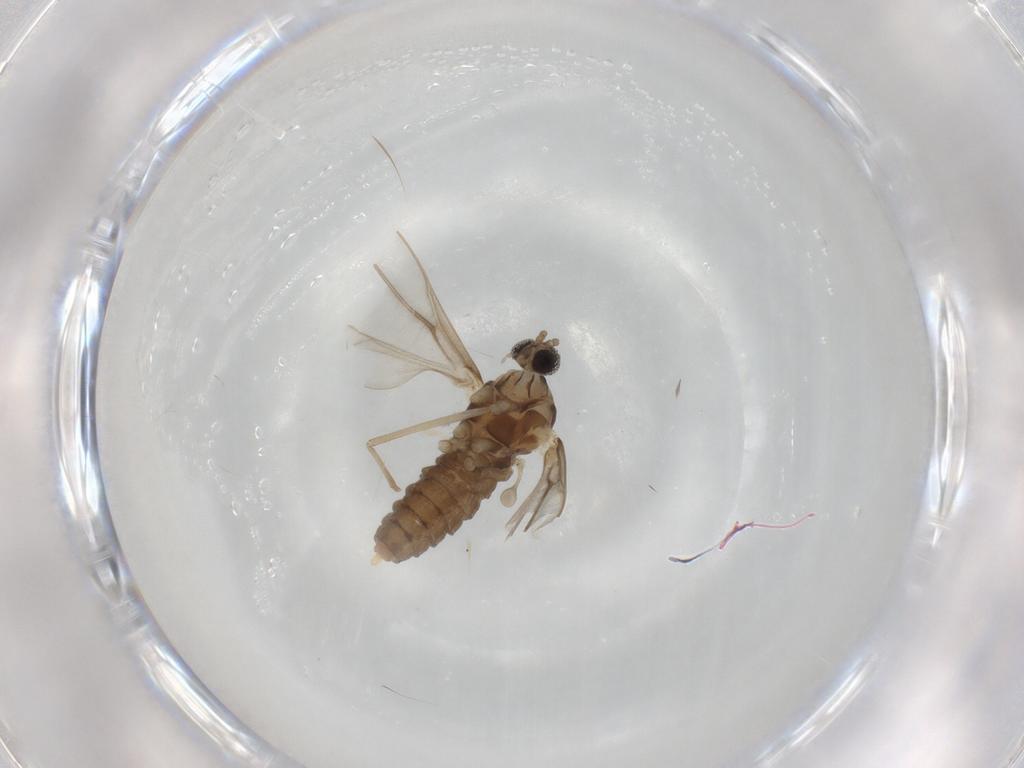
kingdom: Animalia
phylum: Arthropoda
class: Insecta
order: Diptera
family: Cecidomyiidae
